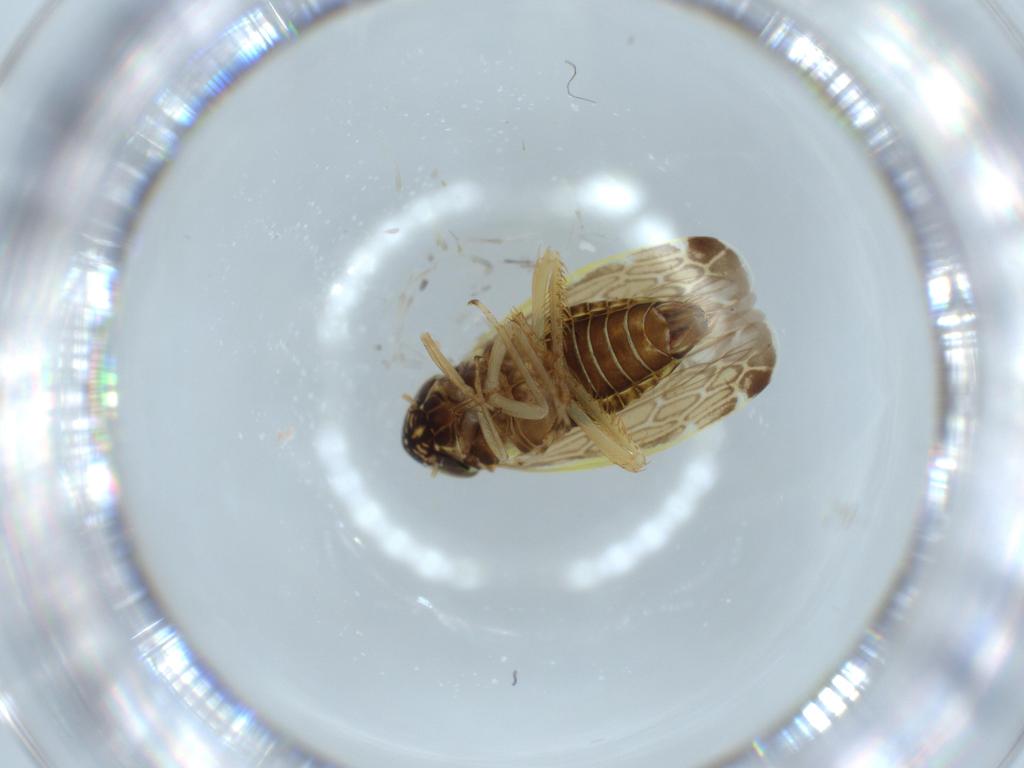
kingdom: Animalia
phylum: Arthropoda
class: Insecta
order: Hemiptera
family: Cicadellidae
